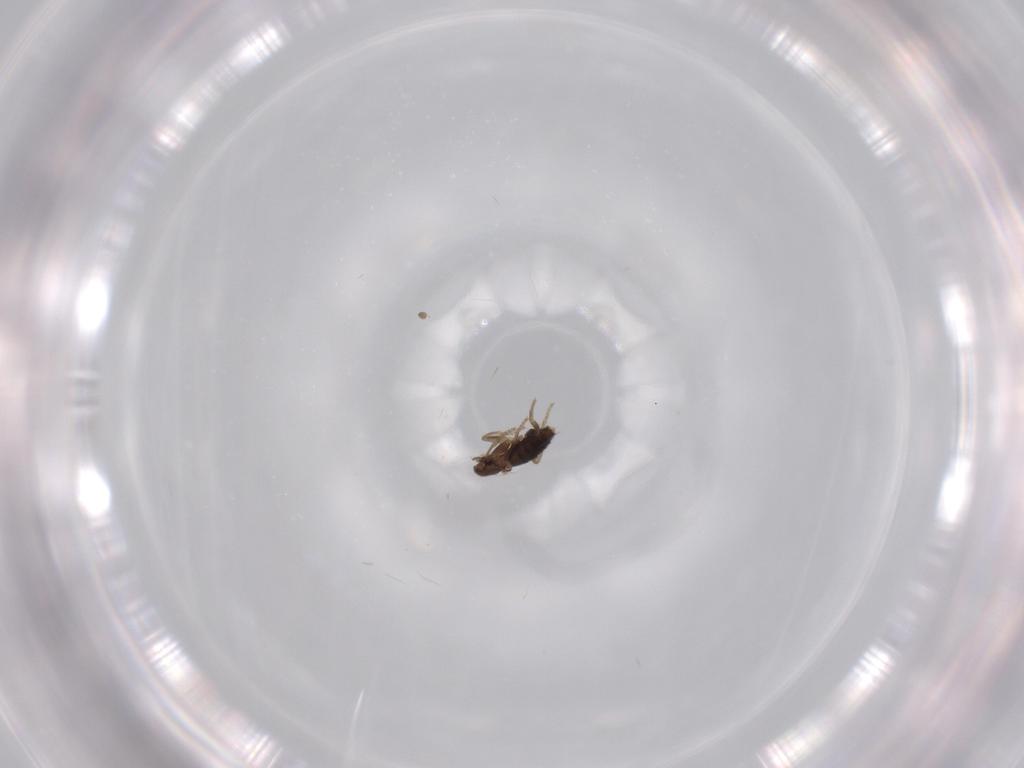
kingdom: Animalia
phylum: Arthropoda
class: Insecta
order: Diptera
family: Phoridae
